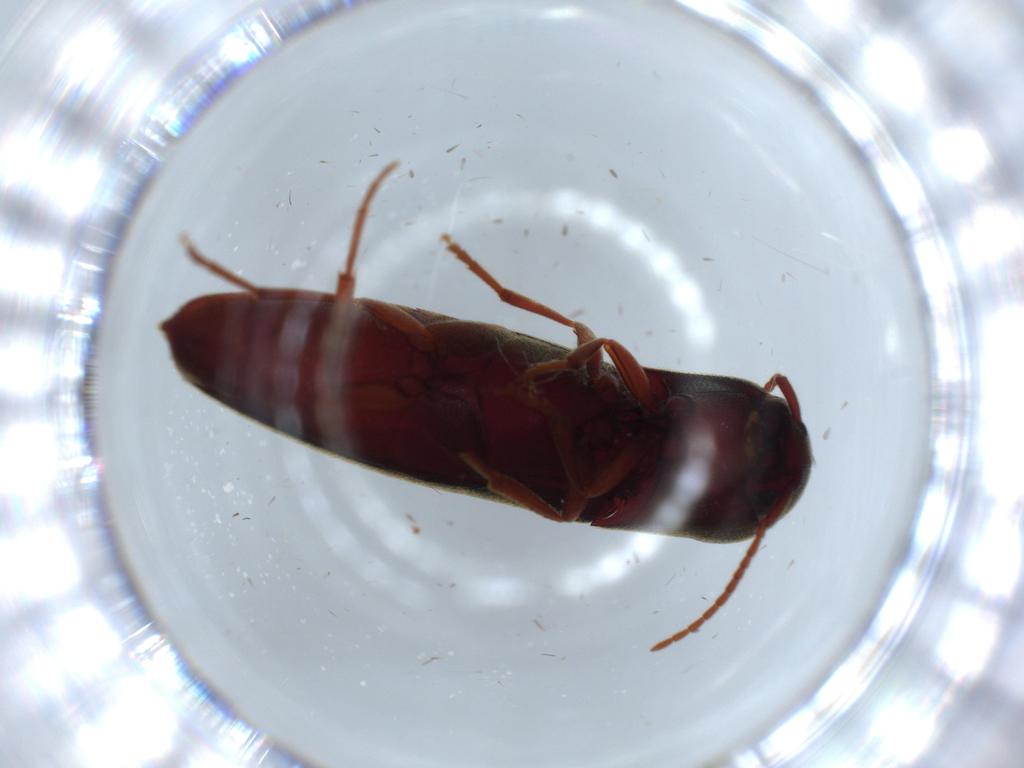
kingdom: Animalia
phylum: Arthropoda
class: Insecta
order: Coleoptera
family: Eucnemidae
